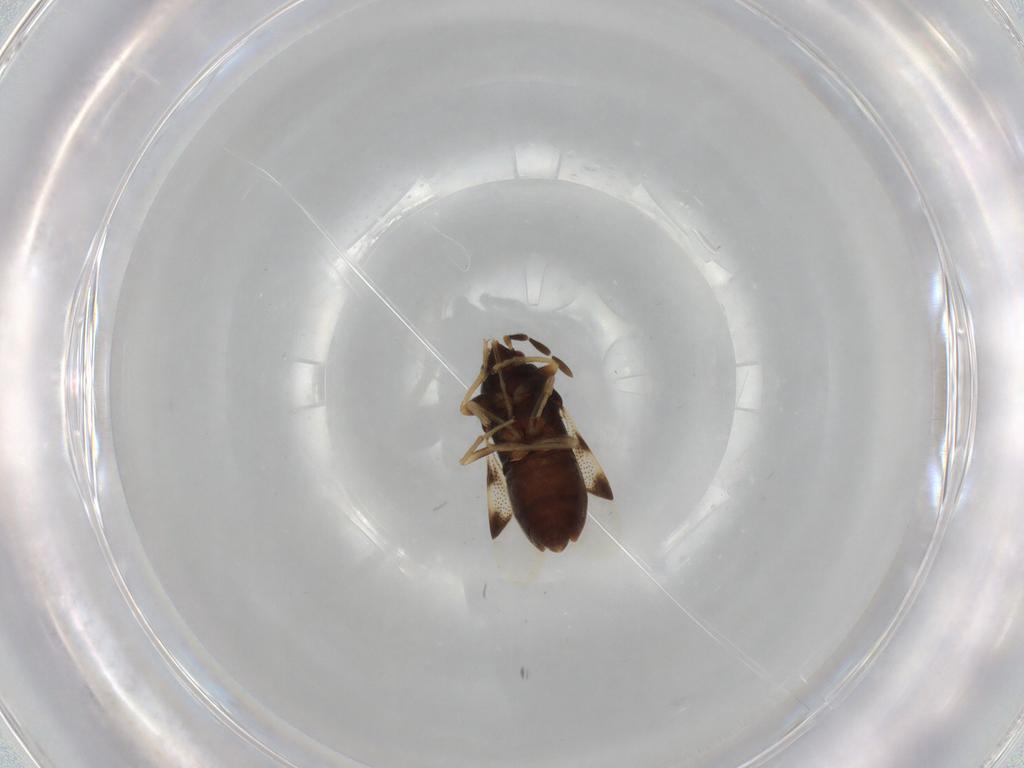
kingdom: Animalia
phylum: Arthropoda
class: Insecta
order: Hemiptera
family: Rhyparochromidae
